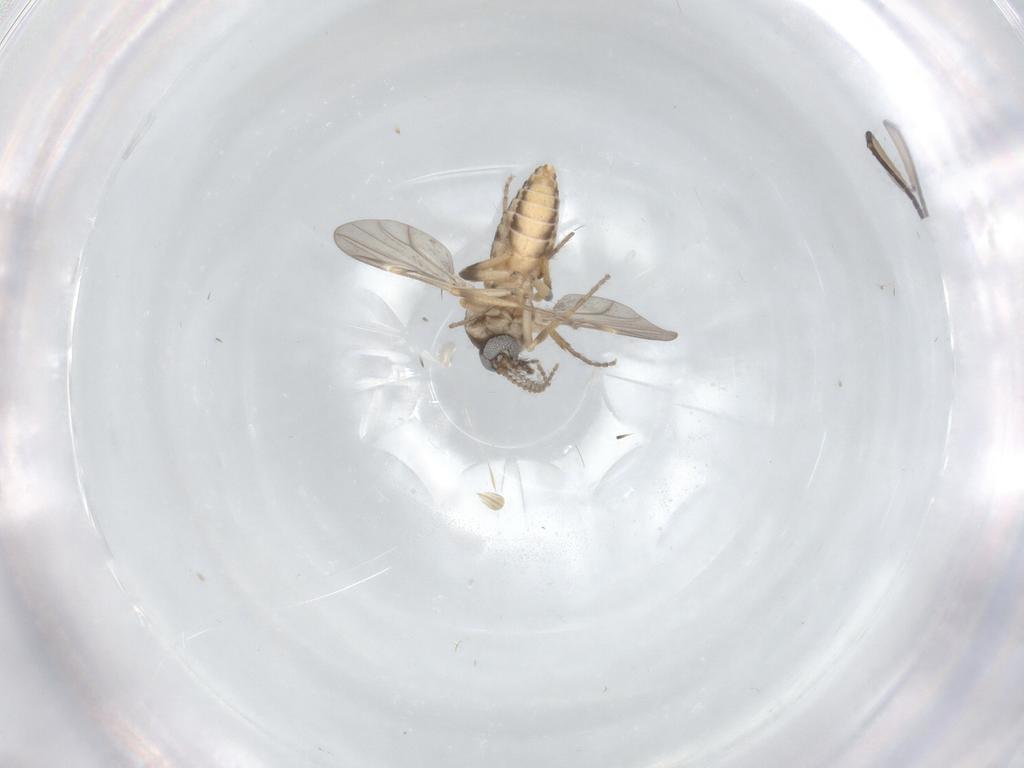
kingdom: Animalia
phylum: Arthropoda
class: Insecta
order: Diptera
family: Ceratopogonidae
